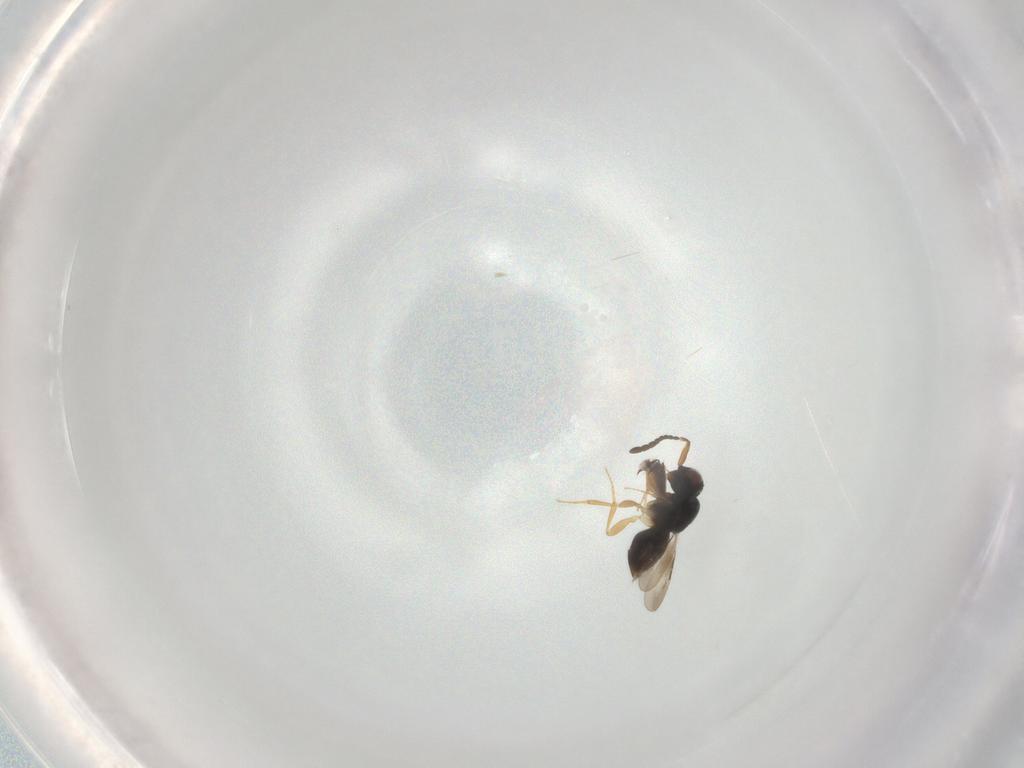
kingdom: Animalia
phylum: Arthropoda
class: Insecta
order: Hymenoptera
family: Ichneumonidae
